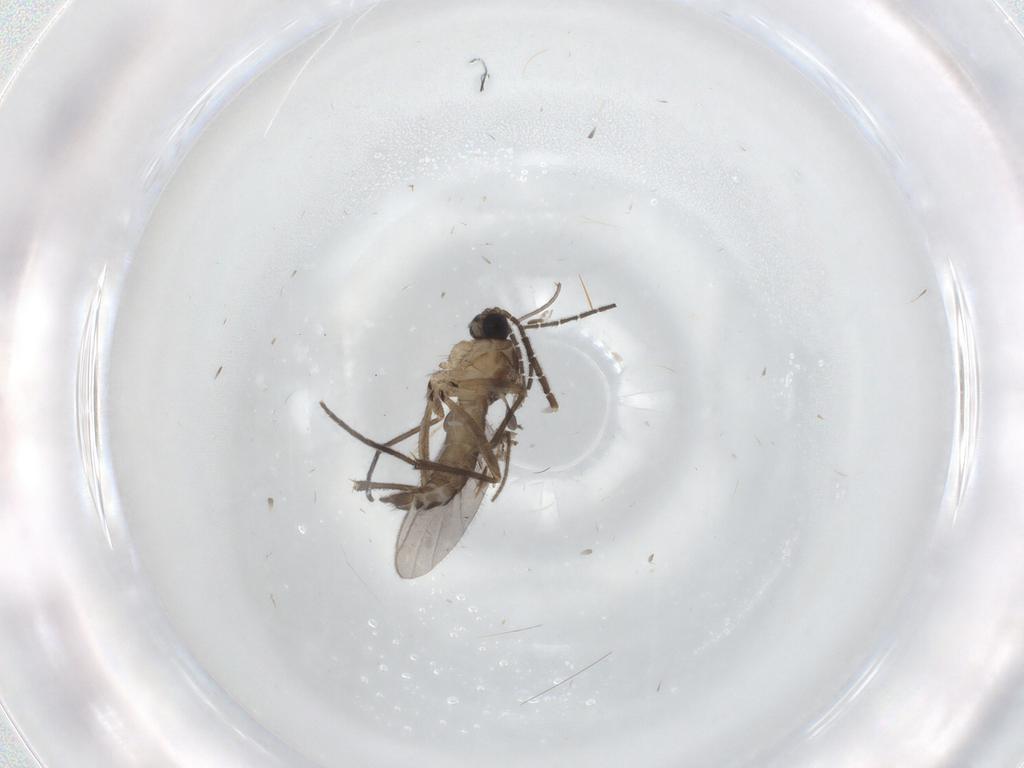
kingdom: Animalia
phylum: Arthropoda
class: Insecta
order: Diptera
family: Sciaridae
